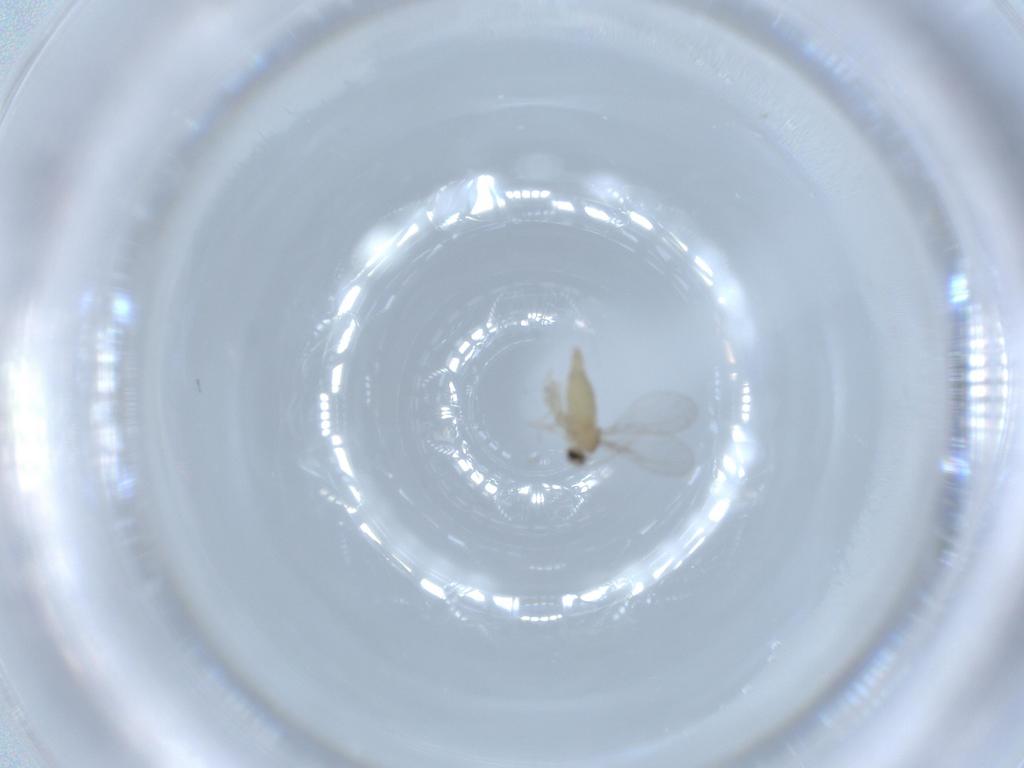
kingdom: Animalia
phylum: Arthropoda
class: Insecta
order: Diptera
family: Cecidomyiidae
